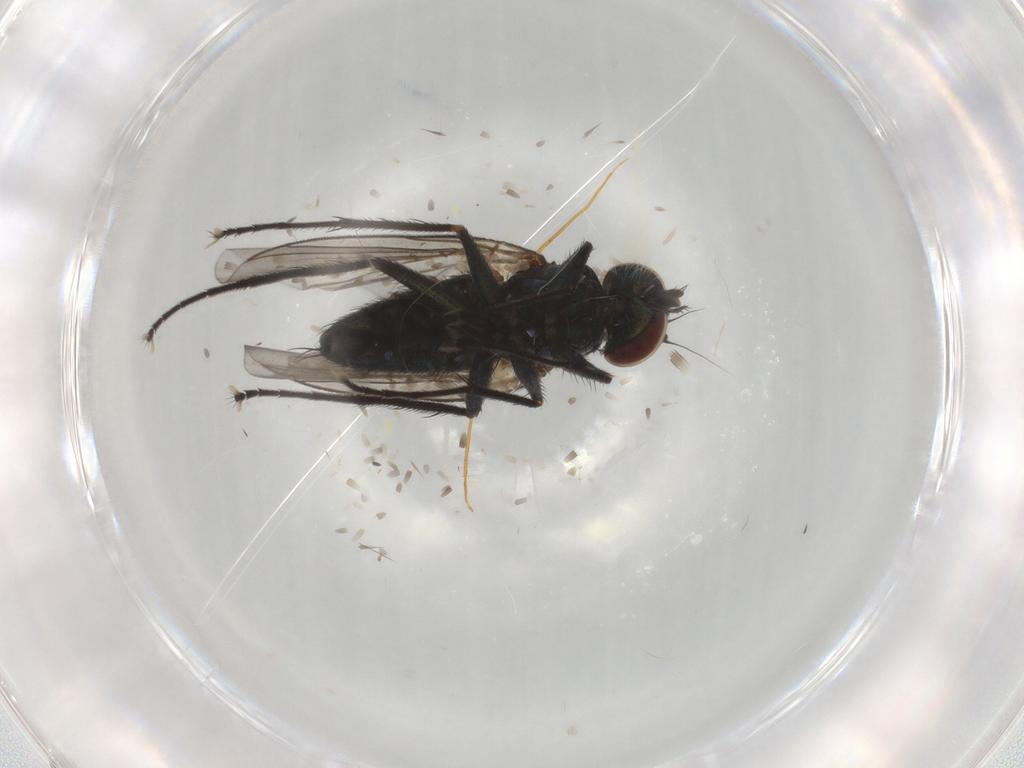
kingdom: Animalia
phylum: Arthropoda
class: Insecta
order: Diptera
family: Dolichopodidae
